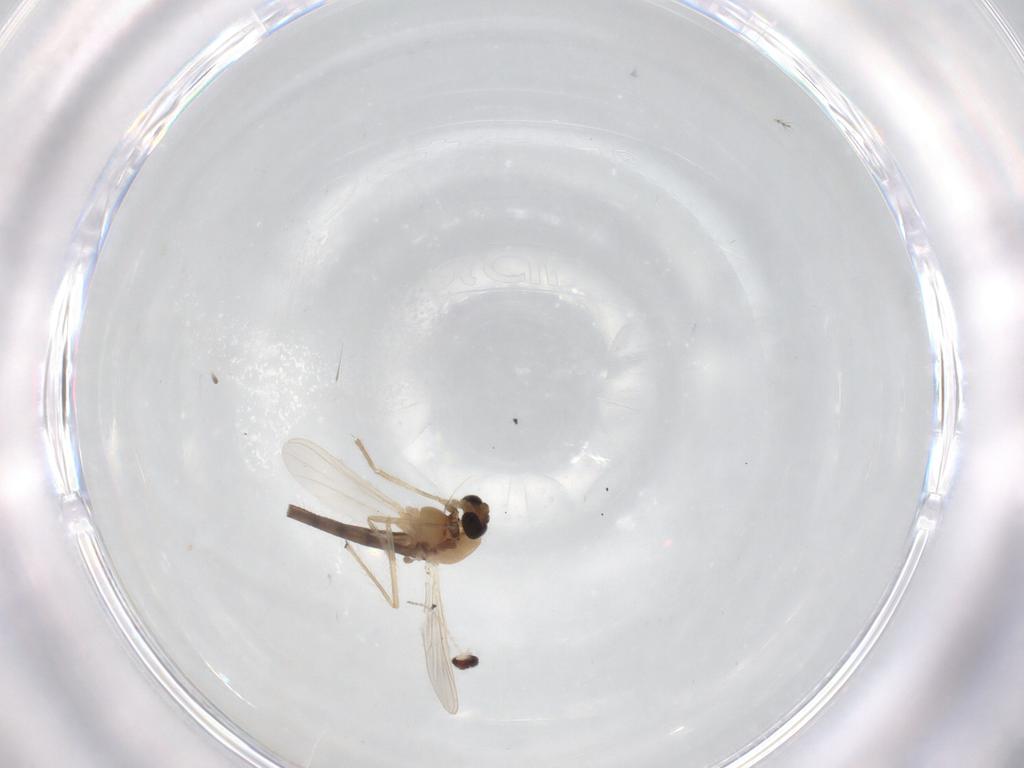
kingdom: Animalia
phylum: Arthropoda
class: Insecta
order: Diptera
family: Chironomidae
